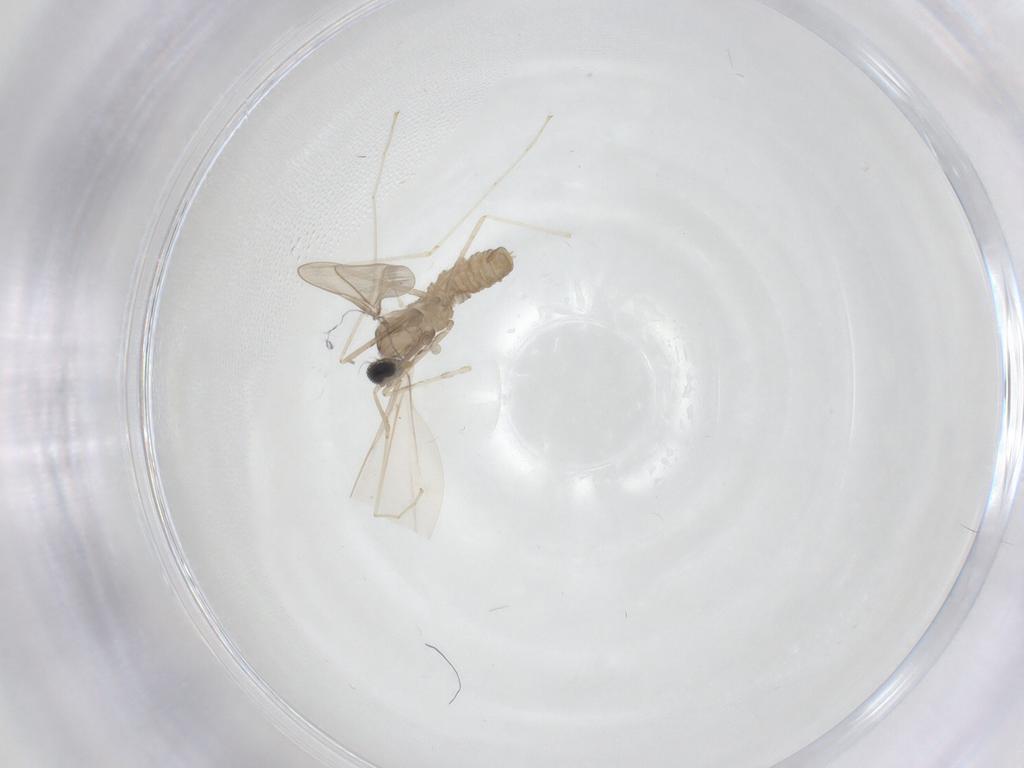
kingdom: Animalia
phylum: Arthropoda
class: Insecta
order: Diptera
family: Cecidomyiidae
